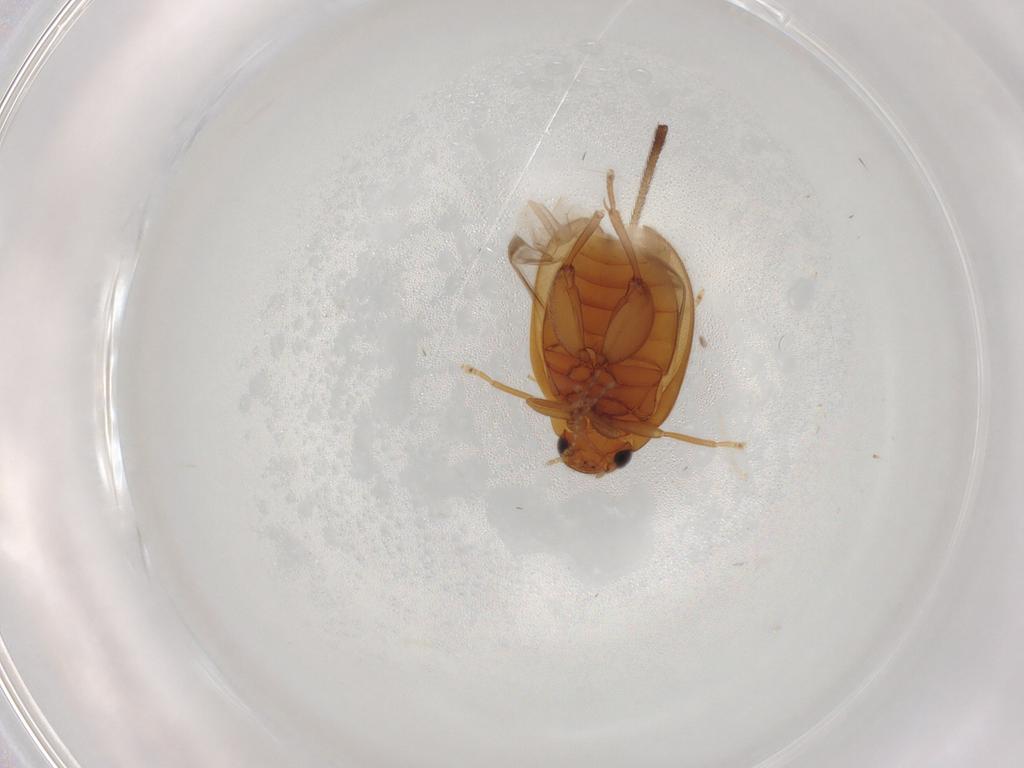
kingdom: Animalia
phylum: Arthropoda
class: Insecta
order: Coleoptera
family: Scirtidae
